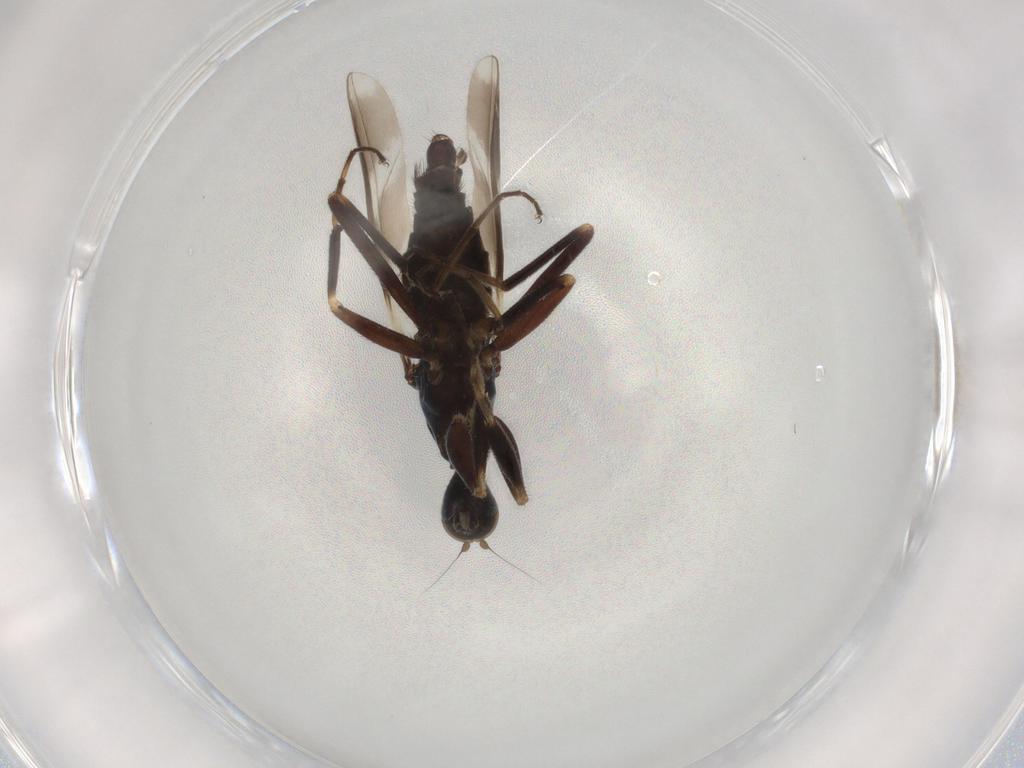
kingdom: Animalia
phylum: Arthropoda
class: Insecta
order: Diptera
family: Hybotidae
